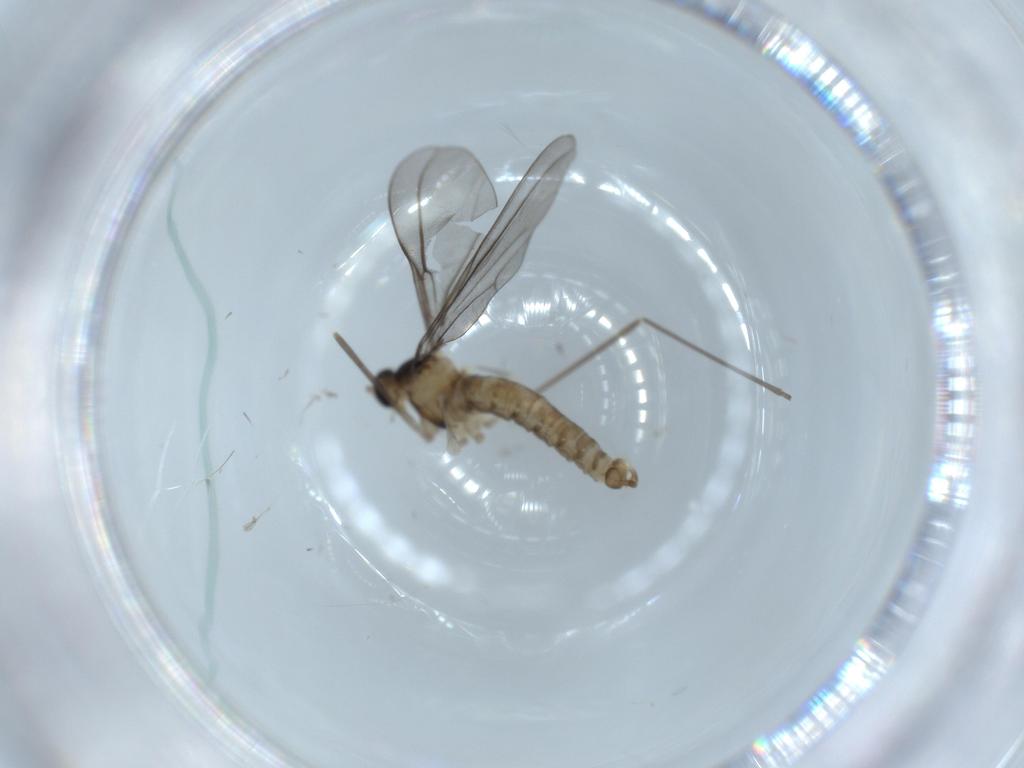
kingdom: Animalia
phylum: Arthropoda
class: Insecta
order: Diptera
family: Cecidomyiidae
